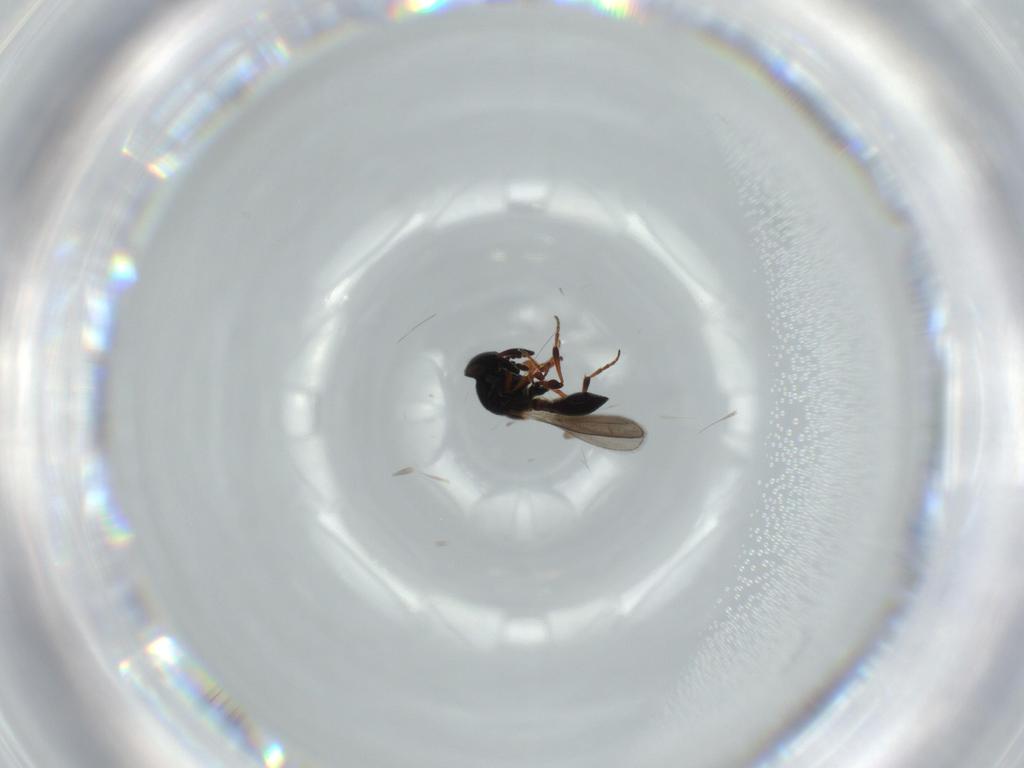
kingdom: Animalia
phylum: Arthropoda
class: Insecta
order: Hymenoptera
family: Platygastridae
